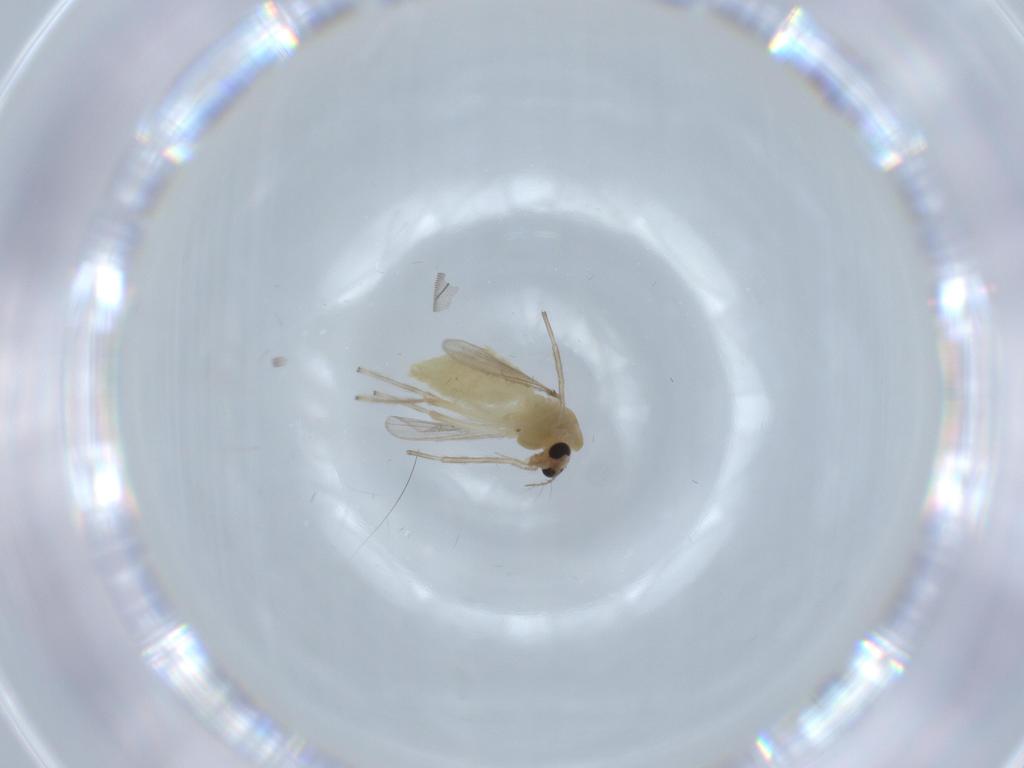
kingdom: Animalia
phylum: Arthropoda
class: Insecta
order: Diptera
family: Chironomidae
